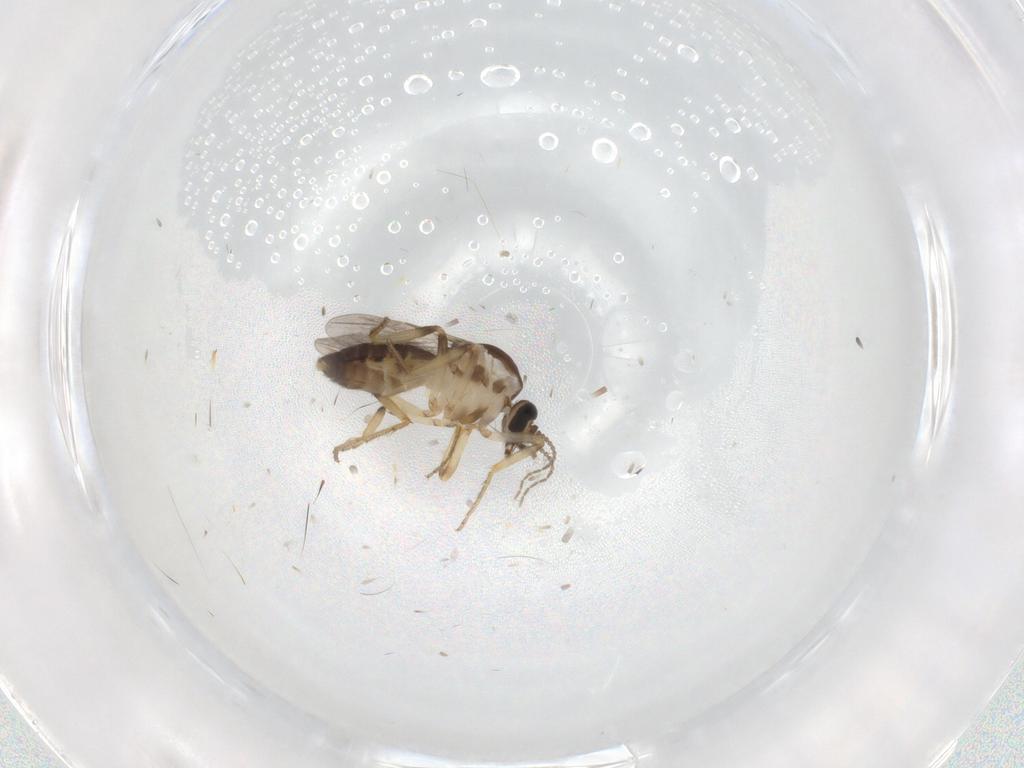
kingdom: Animalia
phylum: Arthropoda
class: Insecta
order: Diptera
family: Ceratopogonidae
